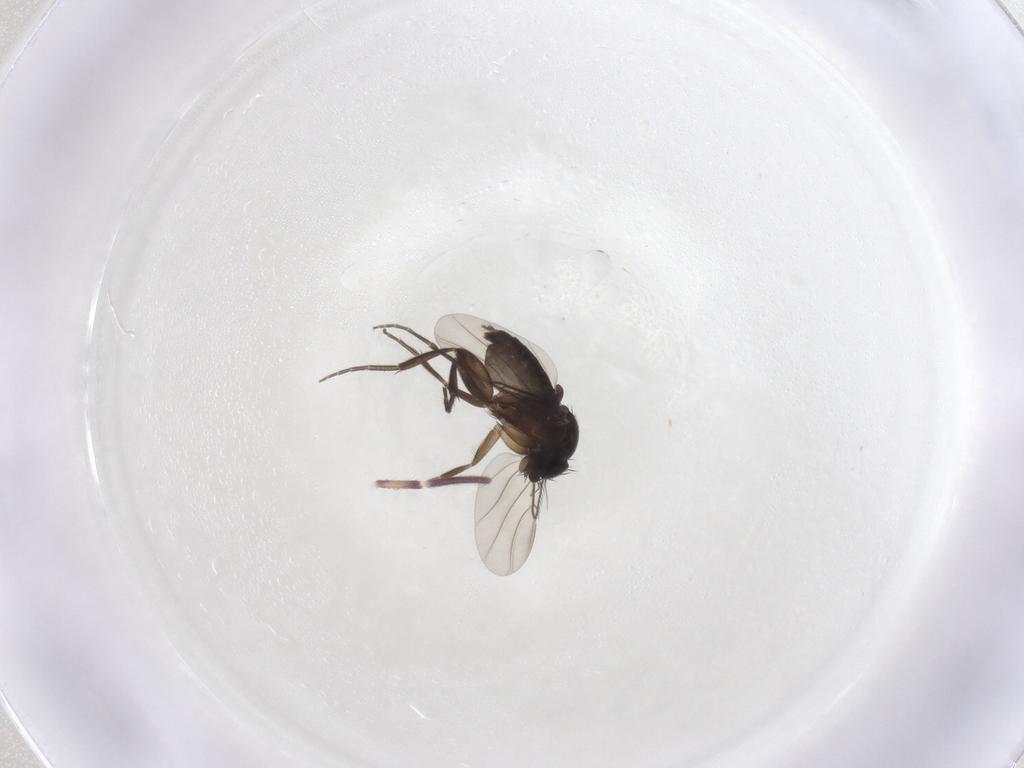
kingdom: Animalia
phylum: Arthropoda
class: Insecta
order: Diptera
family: Phoridae
